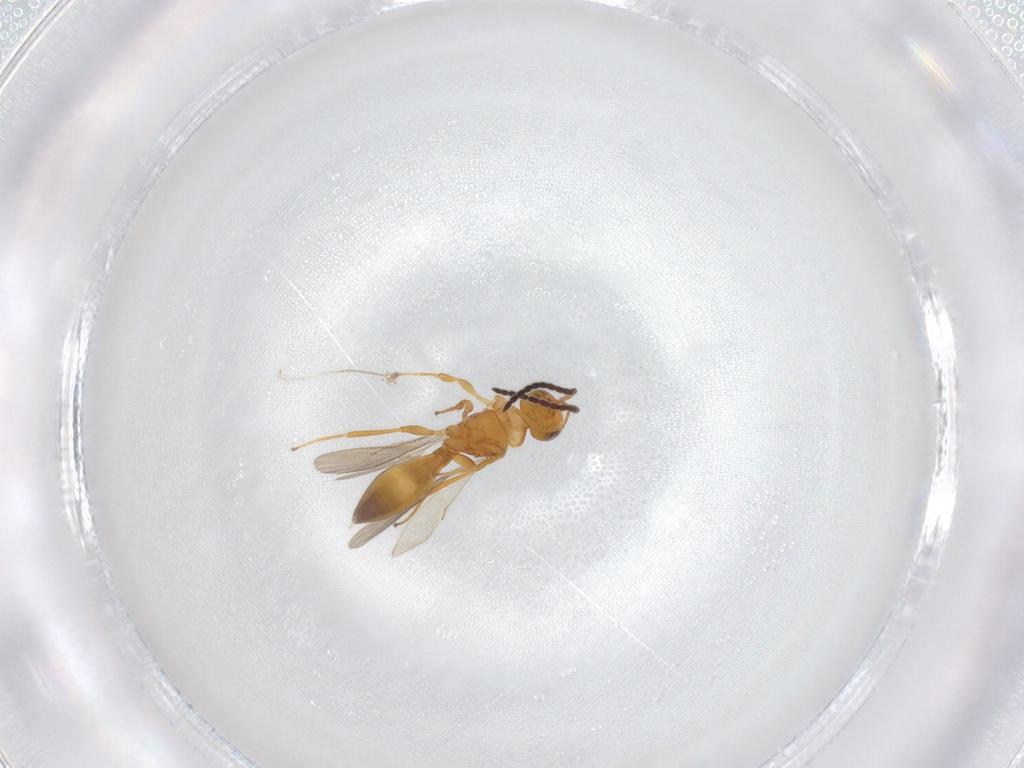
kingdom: Animalia
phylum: Arthropoda
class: Insecta
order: Hymenoptera
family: Scelionidae
